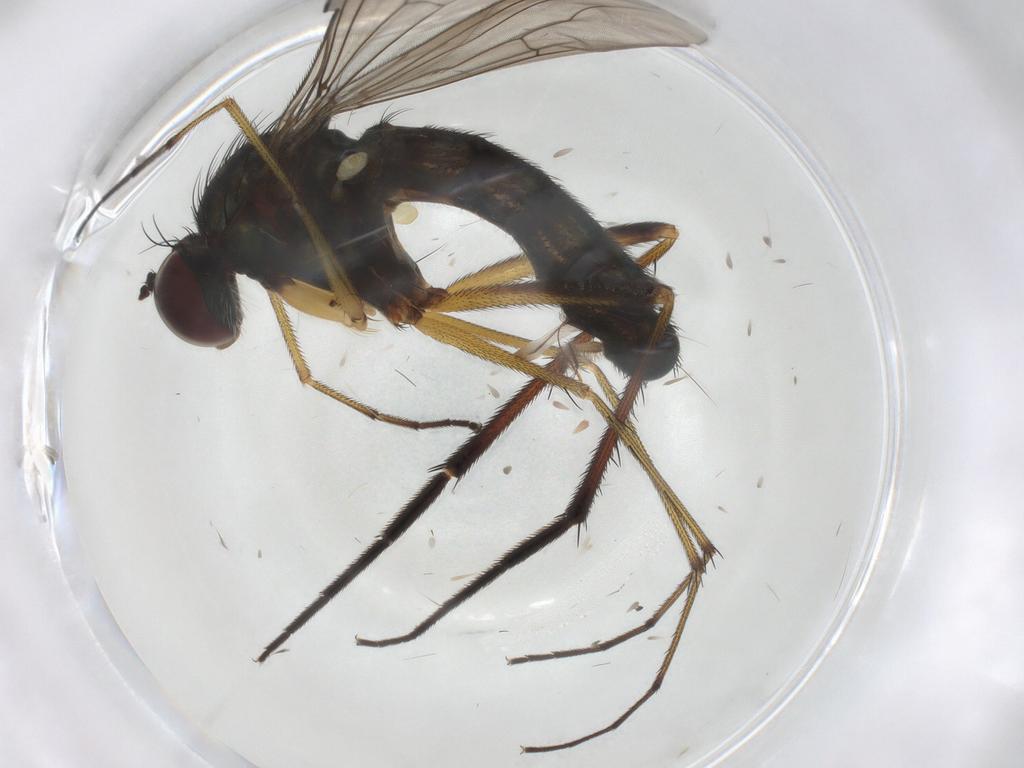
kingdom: Animalia
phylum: Arthropoda
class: Insecta
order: Diptera
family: Dolichopodidae
